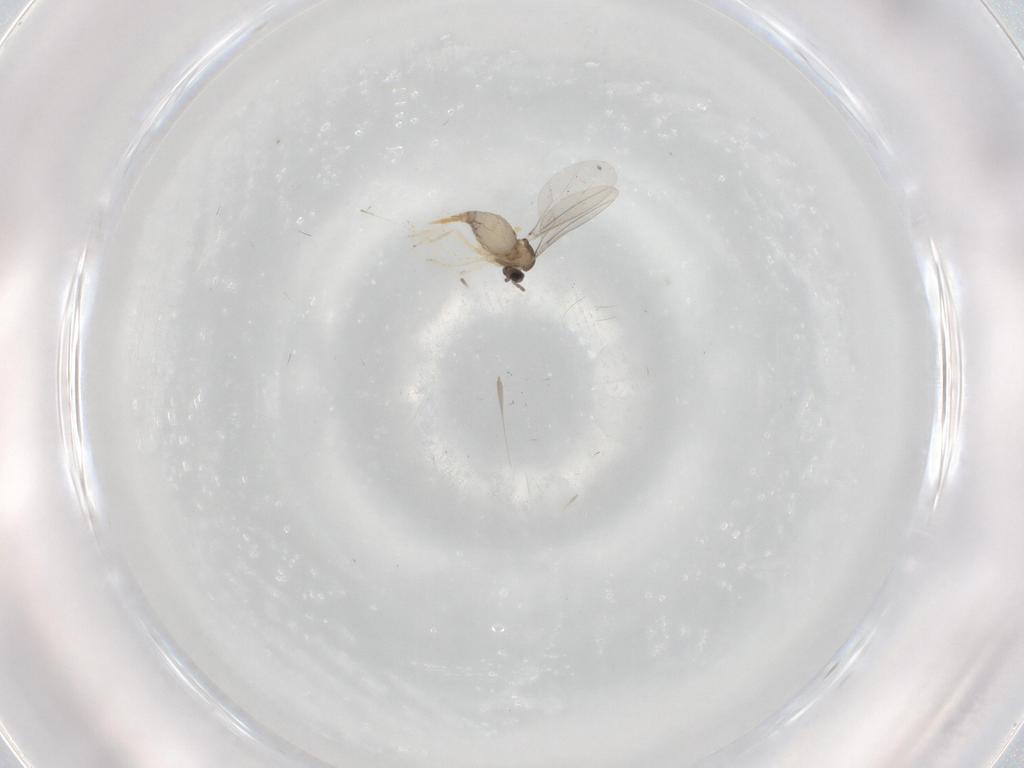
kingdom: Animalia
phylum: Arthropoda
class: Insecta
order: Diptera
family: Cecidomyiidae
